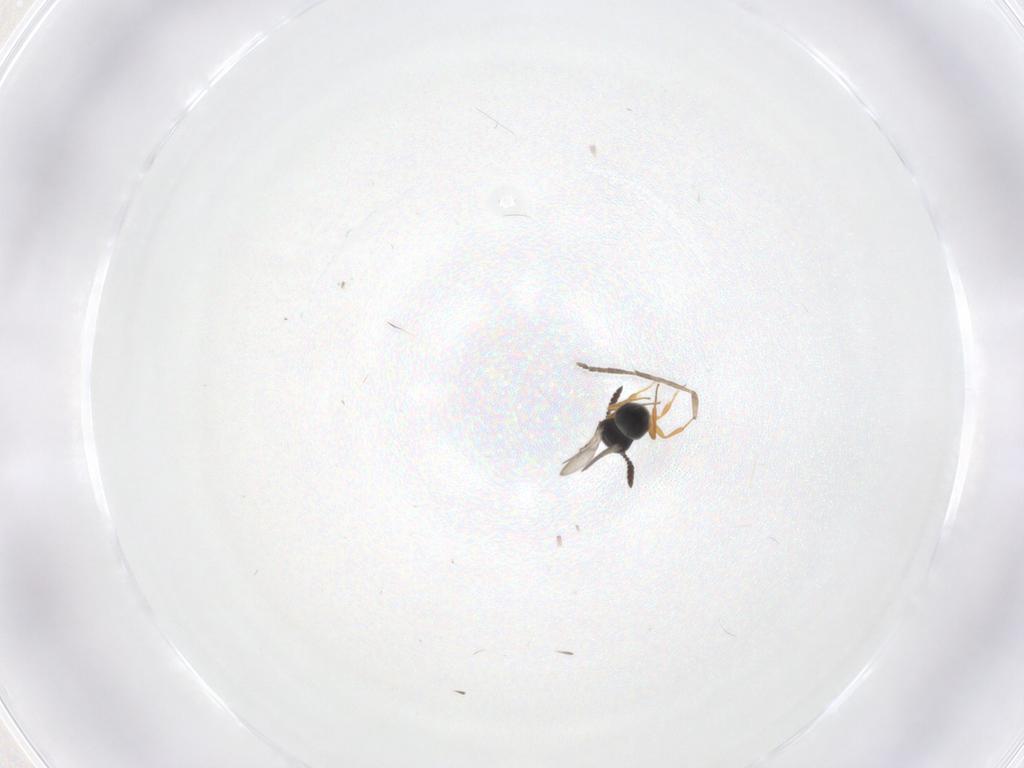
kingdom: Animalia
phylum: Arthropoda
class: Insecta
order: Hymenoptera
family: Scelionidae
